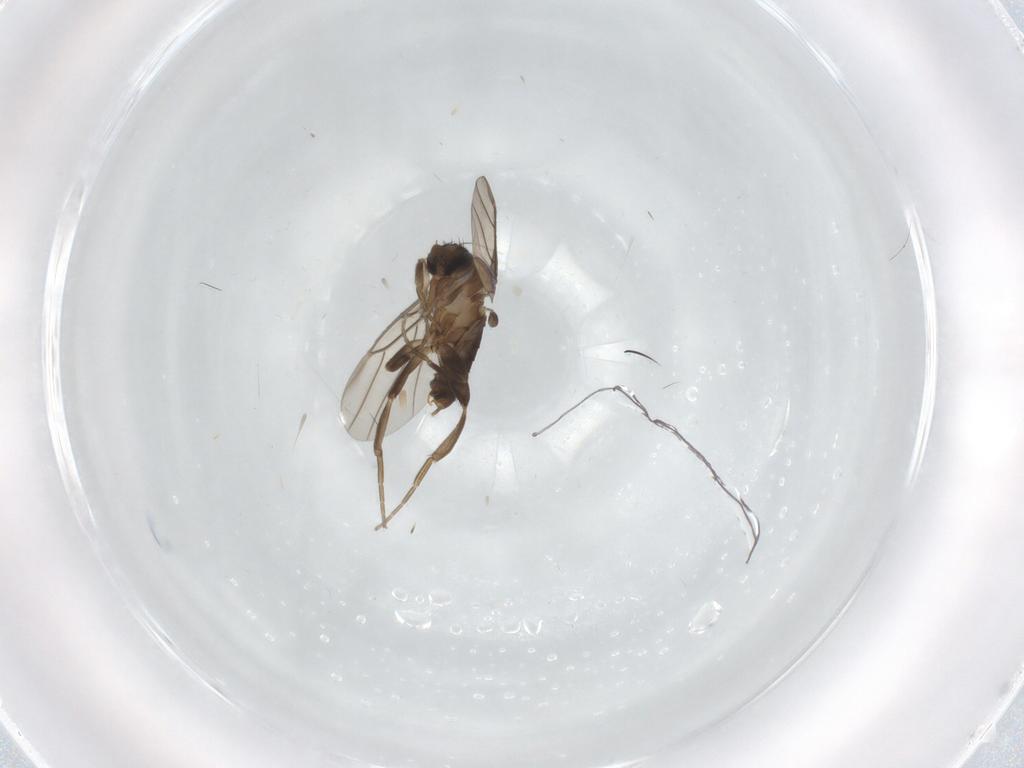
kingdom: Animalia
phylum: Arthropoda
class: Insecta
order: Diptera
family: Phoridae
